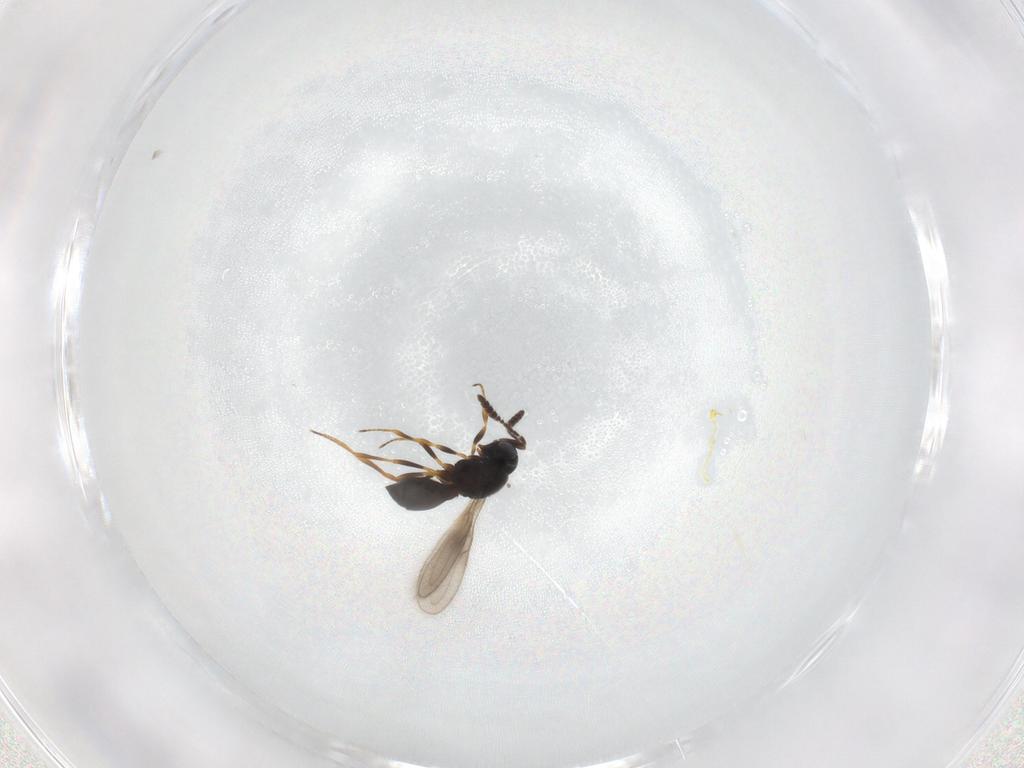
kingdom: Animalia
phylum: Arthropoda
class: Insecta
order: Hymenoptera
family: Scelionidae
